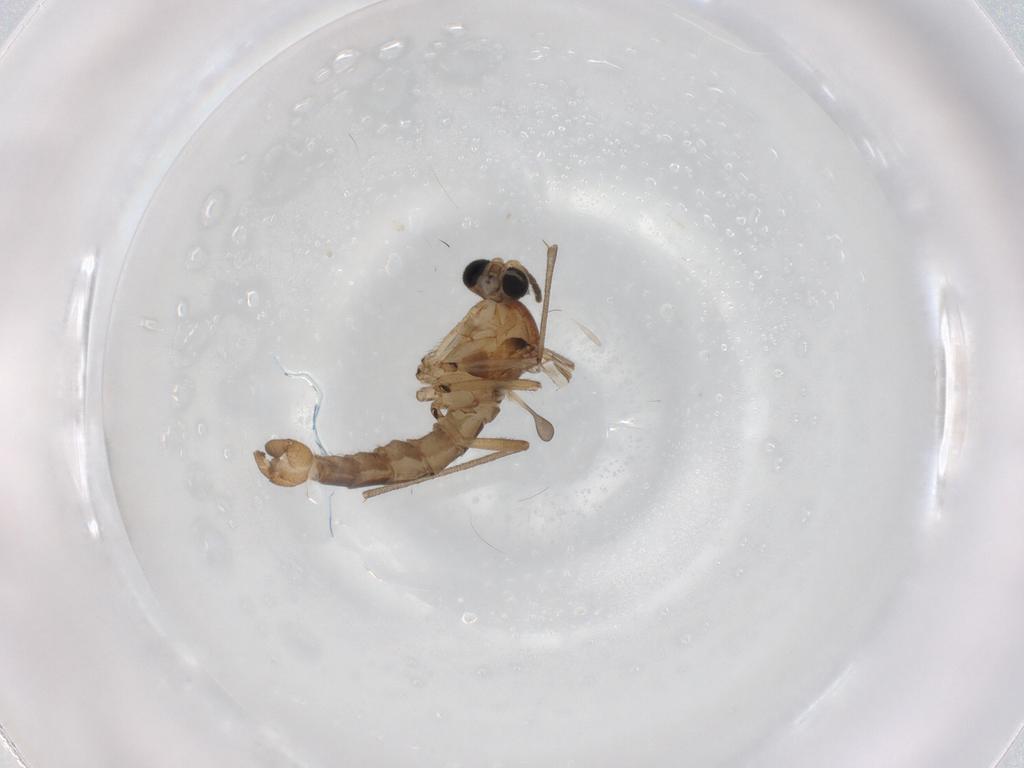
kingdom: Animalia
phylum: Arthropoda
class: Insecta
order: Diptera
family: Sciaridae
